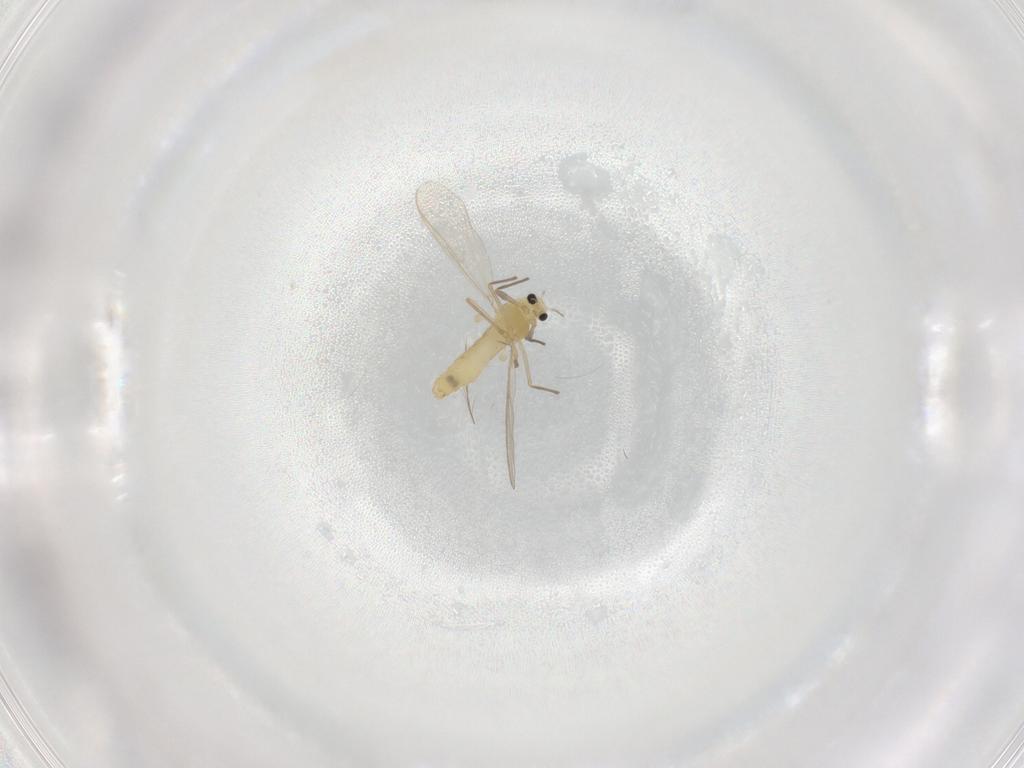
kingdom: Animalia
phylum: Arthropoda
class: Insecta
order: Diptera
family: Chironomidae
